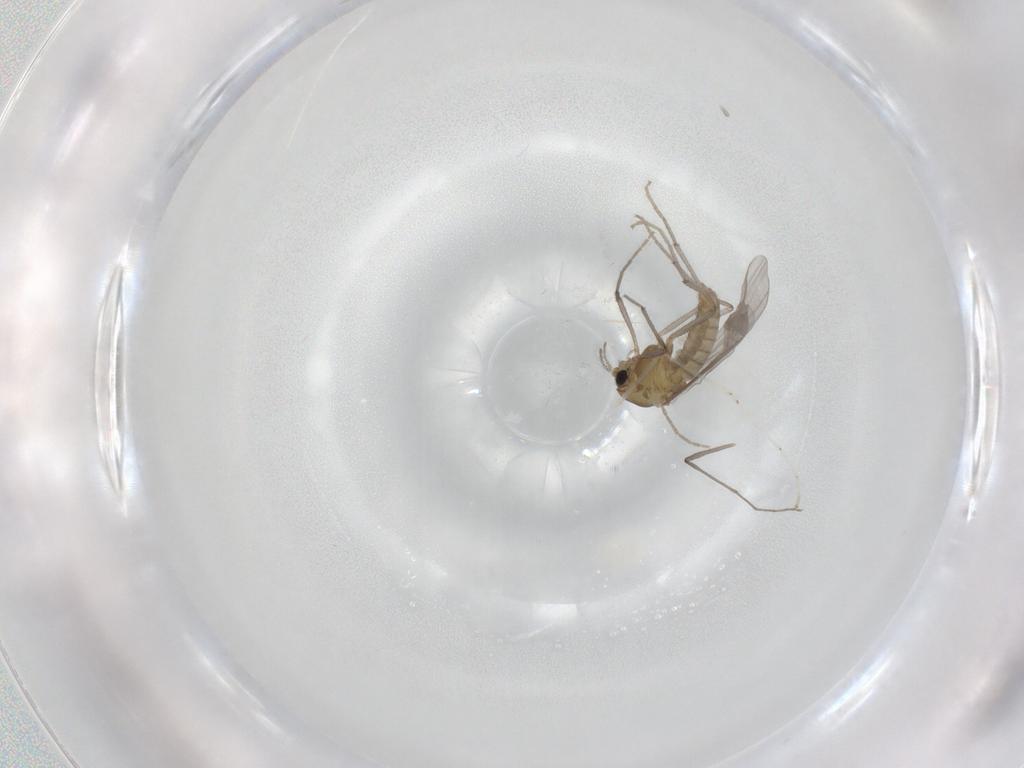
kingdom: Animalia
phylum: Arthropoda
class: Insecta
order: Diptera
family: Chironomidae
